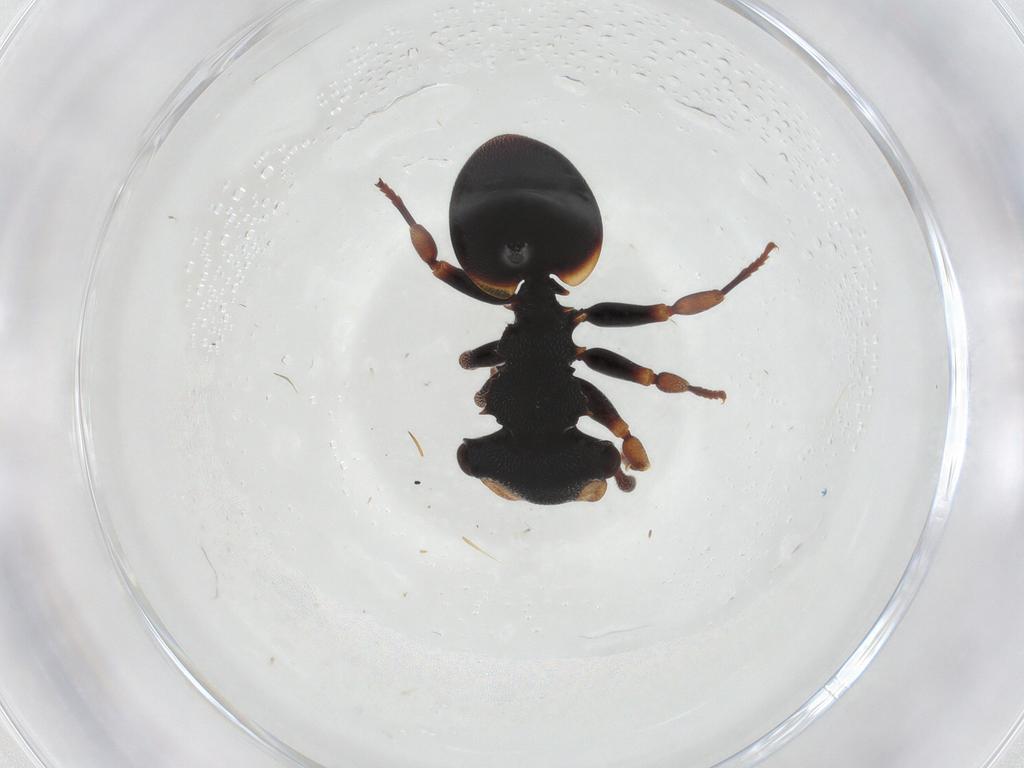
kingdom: Animalia
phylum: Arthropoda
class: Insecta
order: Hymenoptera
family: Formicidae
